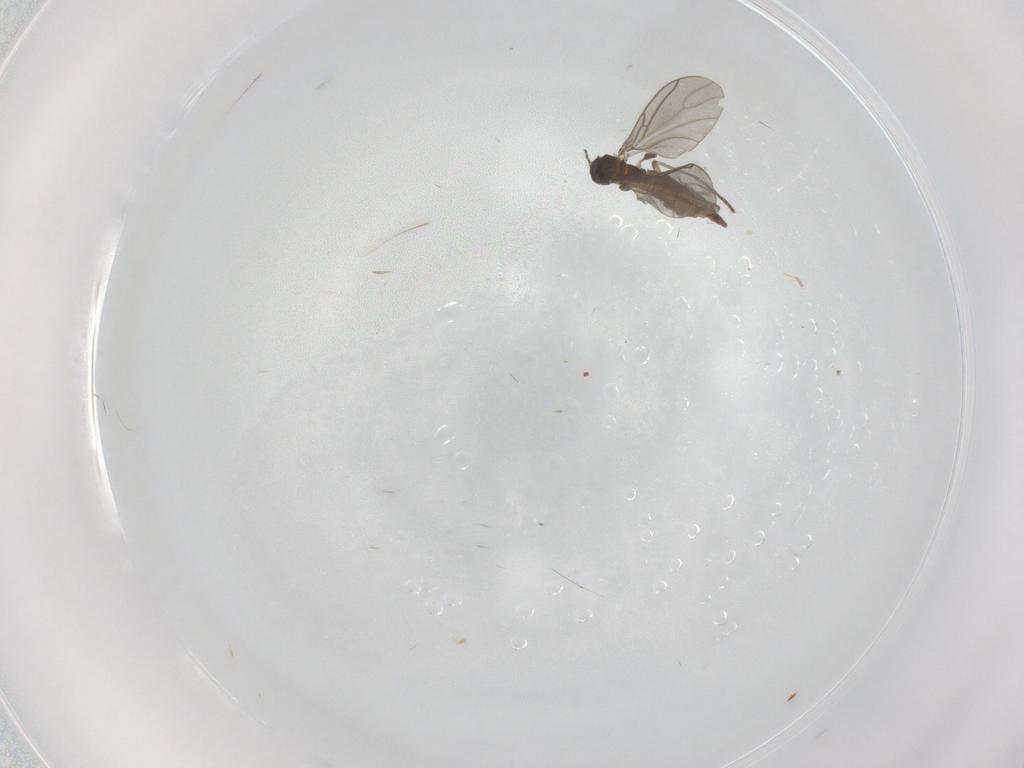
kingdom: Animalia
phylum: Arthropoda
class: Insecta
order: Diptera
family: Sciaridae
